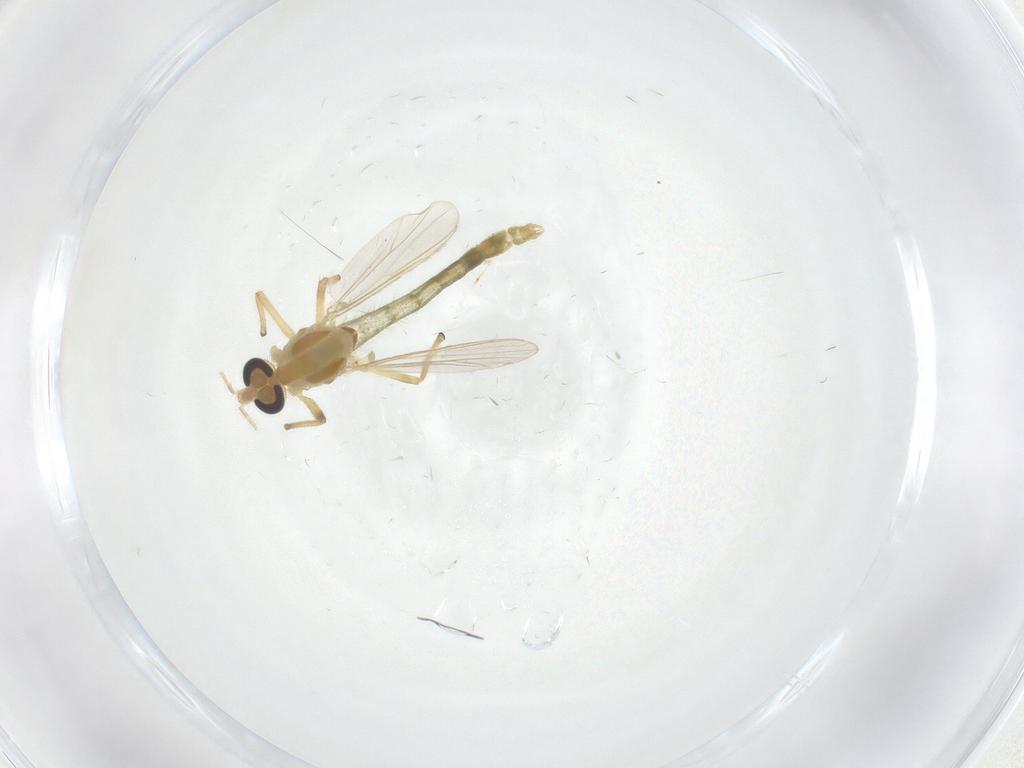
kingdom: Animalia
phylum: Arthropoda
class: Insecta
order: Diptera
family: Chironomidae
